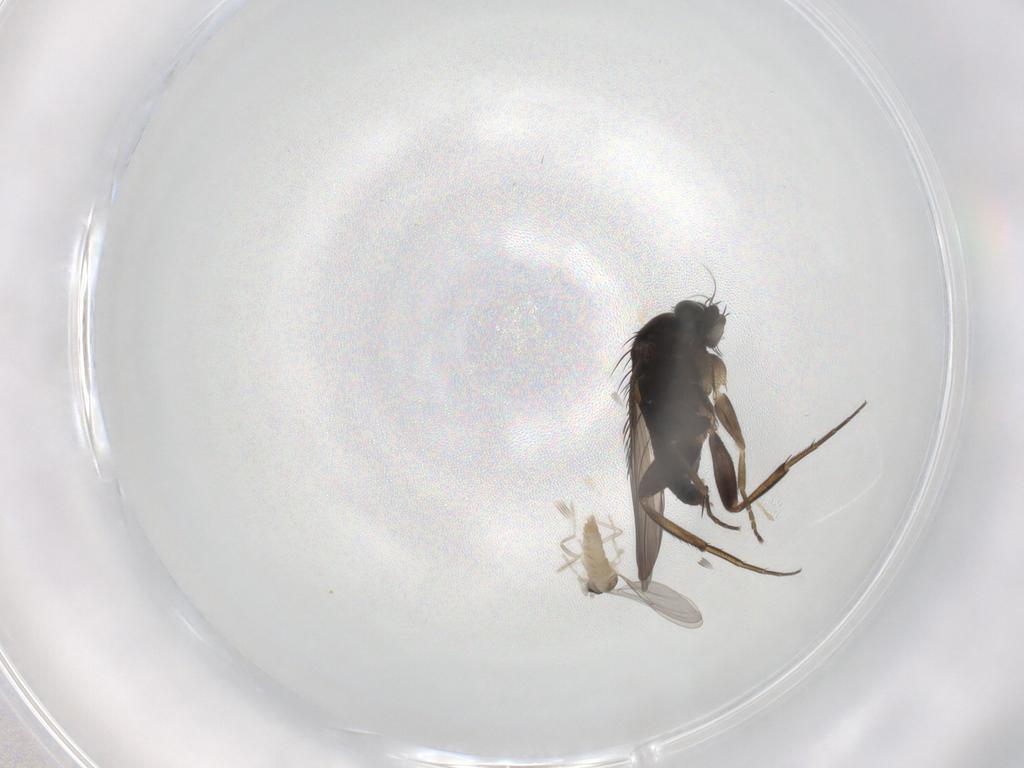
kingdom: Animalia
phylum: Arthropoda
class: Insecta
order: Diptera
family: Phoridae
